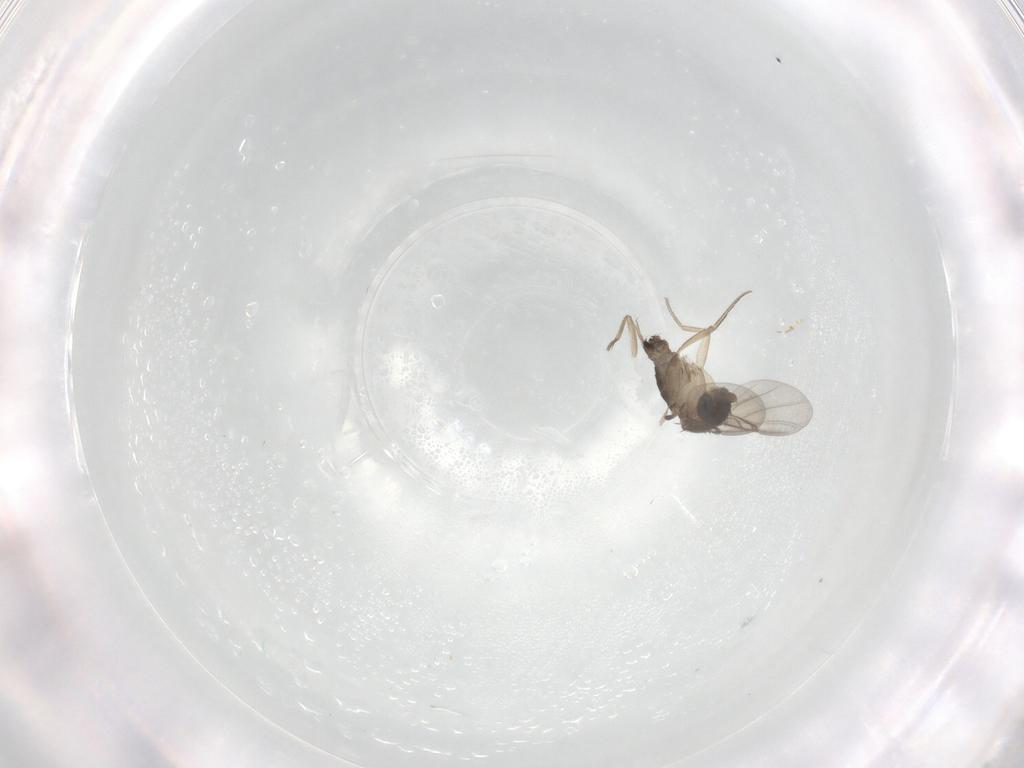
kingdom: Animalia
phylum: Arthropoda
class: Insecta
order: Diptera
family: Phoridae
